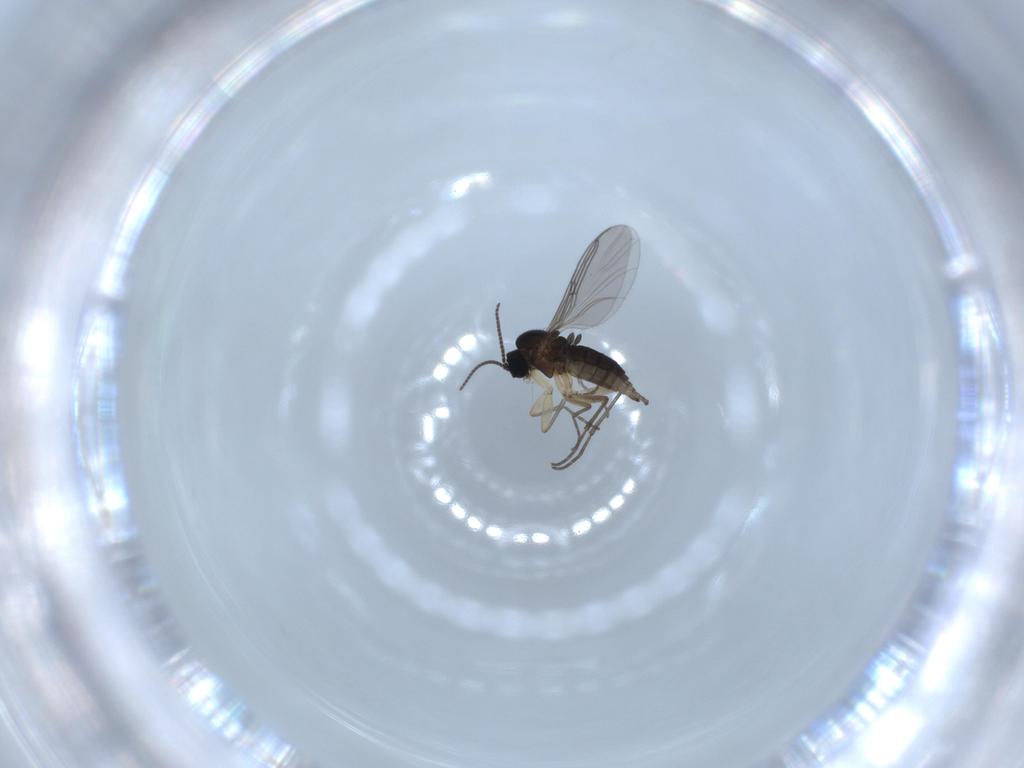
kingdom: Animalia
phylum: Arthropoda
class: Insecta
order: Diptera
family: Sciaridae
